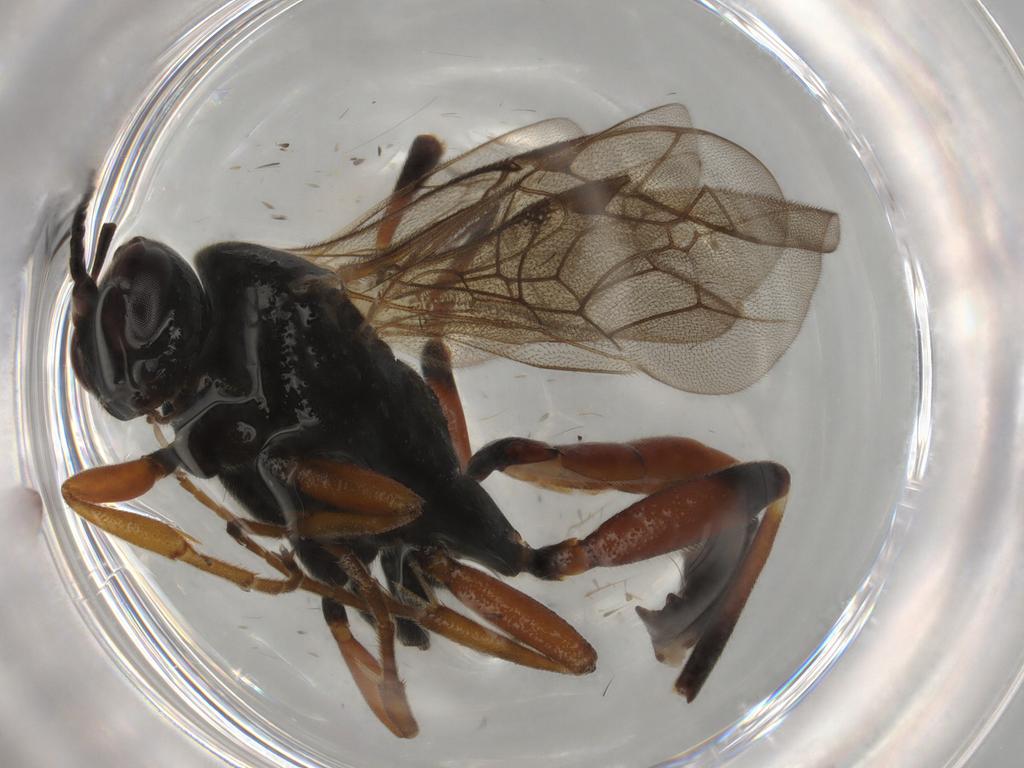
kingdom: Animalia
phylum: Arthropoda
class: Insecta
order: Hymenoptera
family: Ichneumonidae
